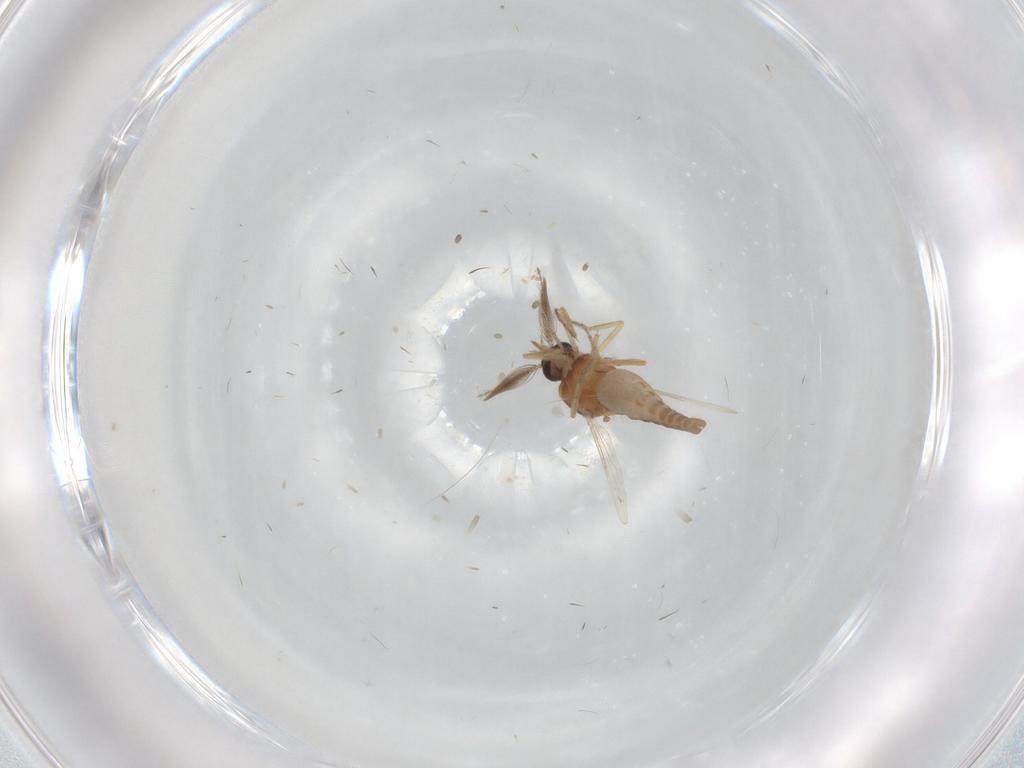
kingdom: Animalia
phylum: Arthropoda
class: Insecta
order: Diptera
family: Ceratopogonidae
